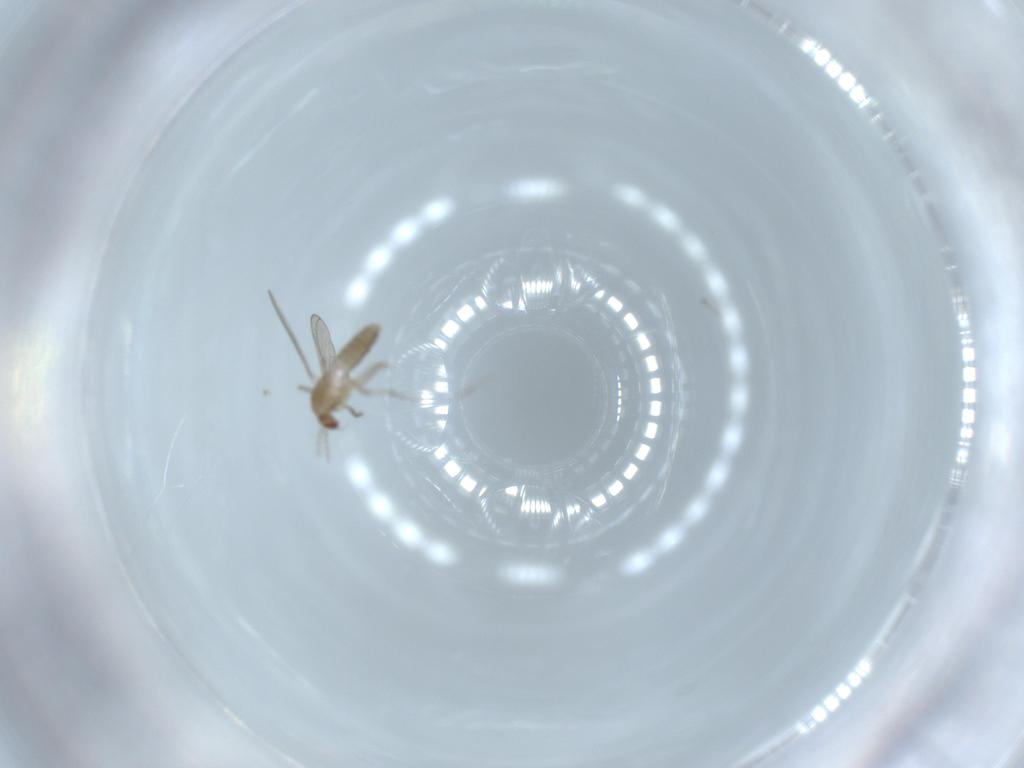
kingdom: Animalia
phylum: Arthropoda
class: Insecta
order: Diptera
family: Chironomidae
